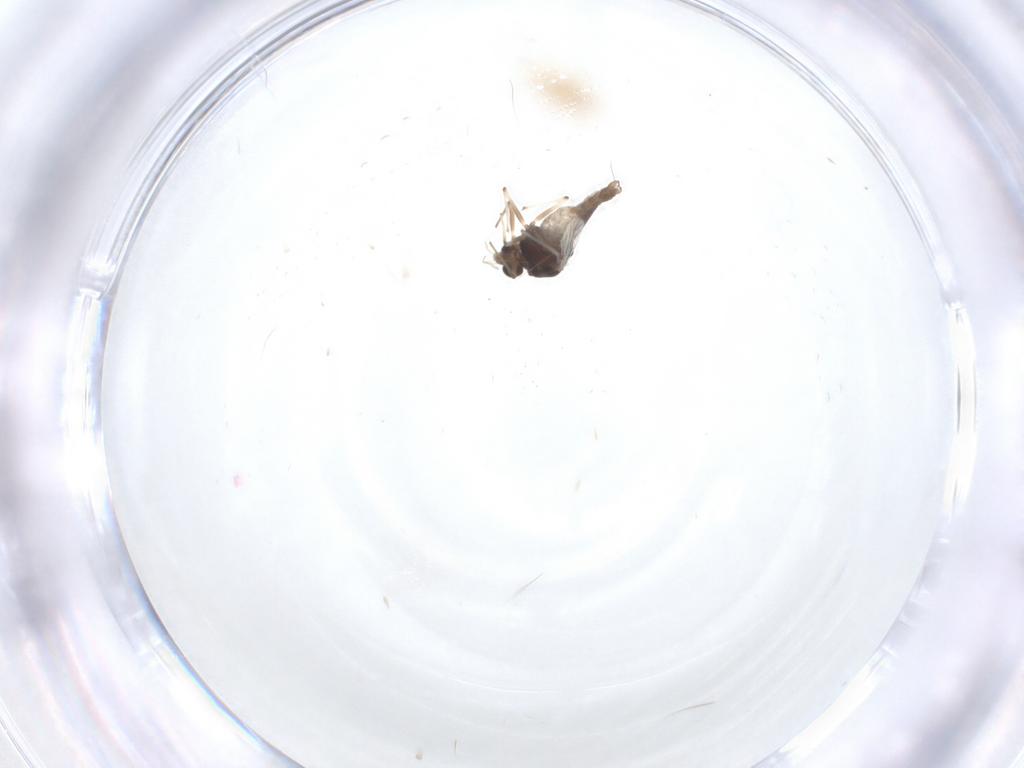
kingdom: Animalia
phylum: Arthropoda
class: Insecta
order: Diptera
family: Chironomidae
